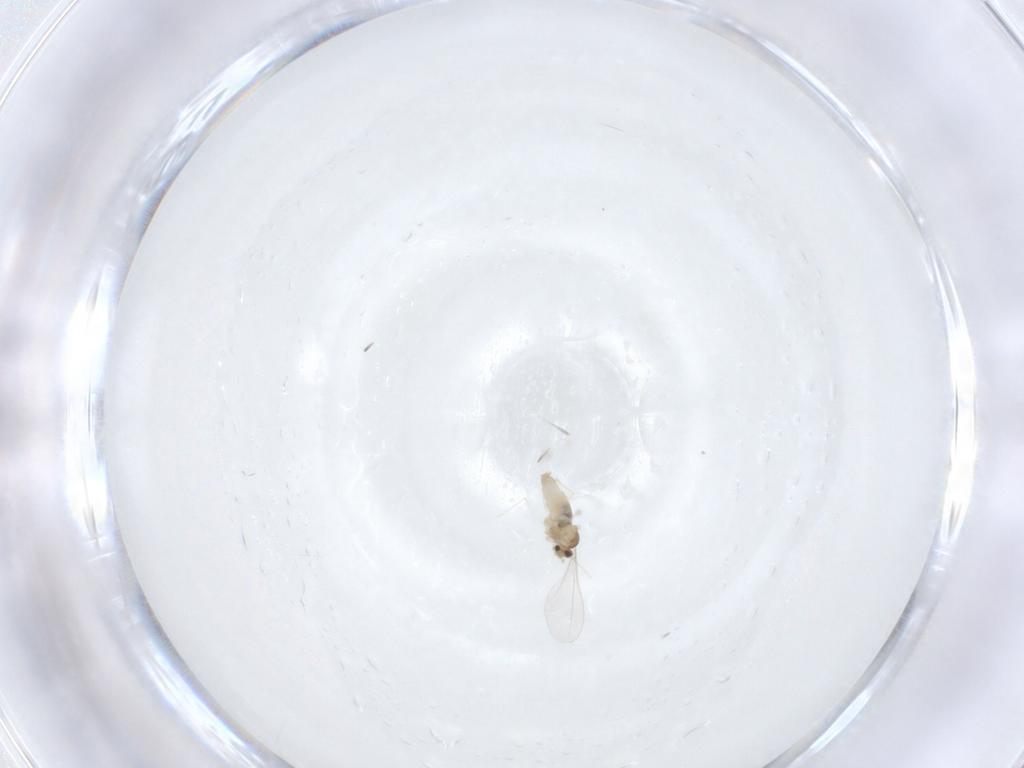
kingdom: Animalia
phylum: Arthropoda
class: Insecta
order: Diptera
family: Cecidomyiidae
